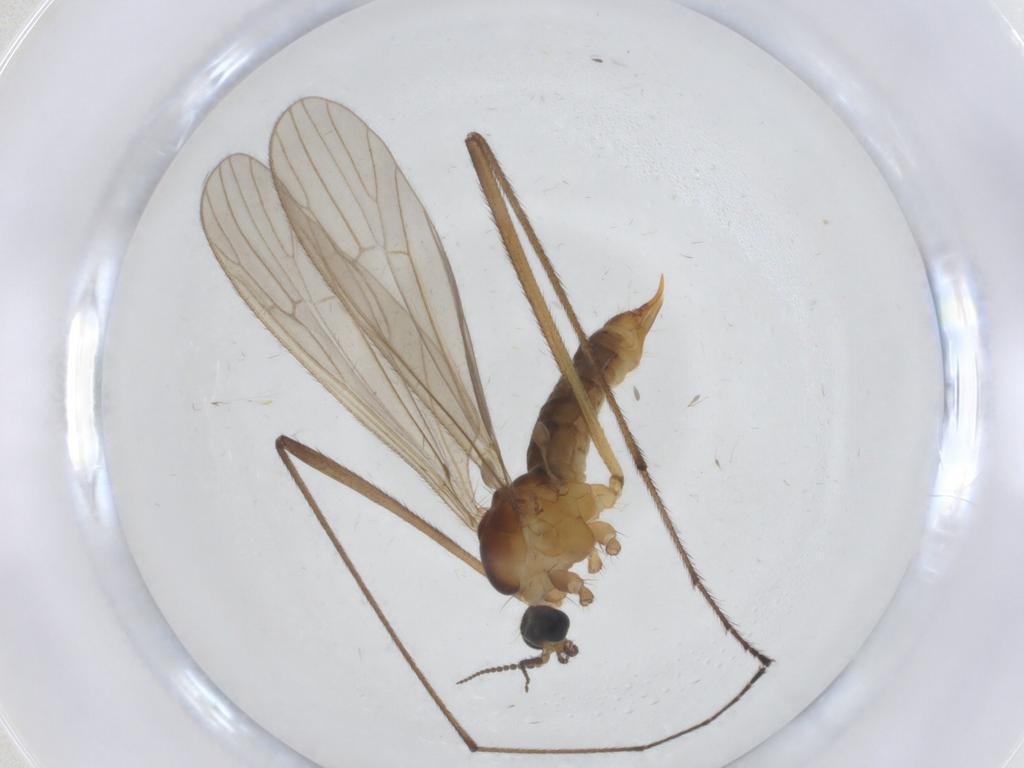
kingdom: Animalia
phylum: Arthropoda
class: Insecta
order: Diptera
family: Limoniidae
